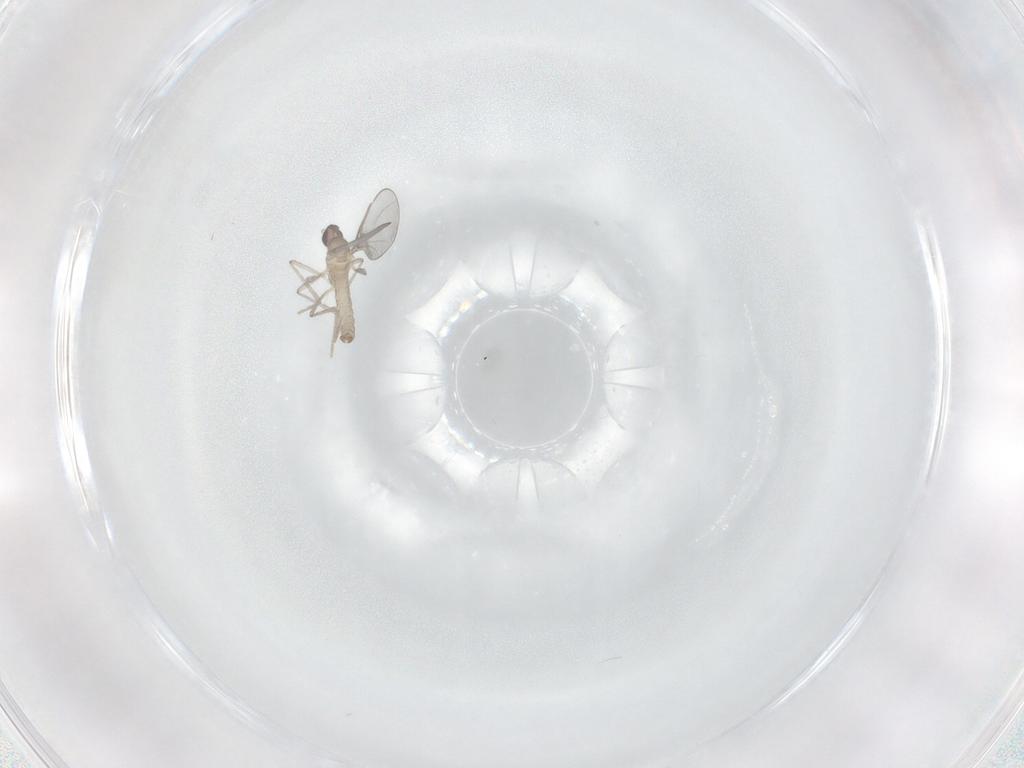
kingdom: Animalia
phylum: Arthropoda
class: Insecta
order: Diptera
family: Cecidomyiidae
